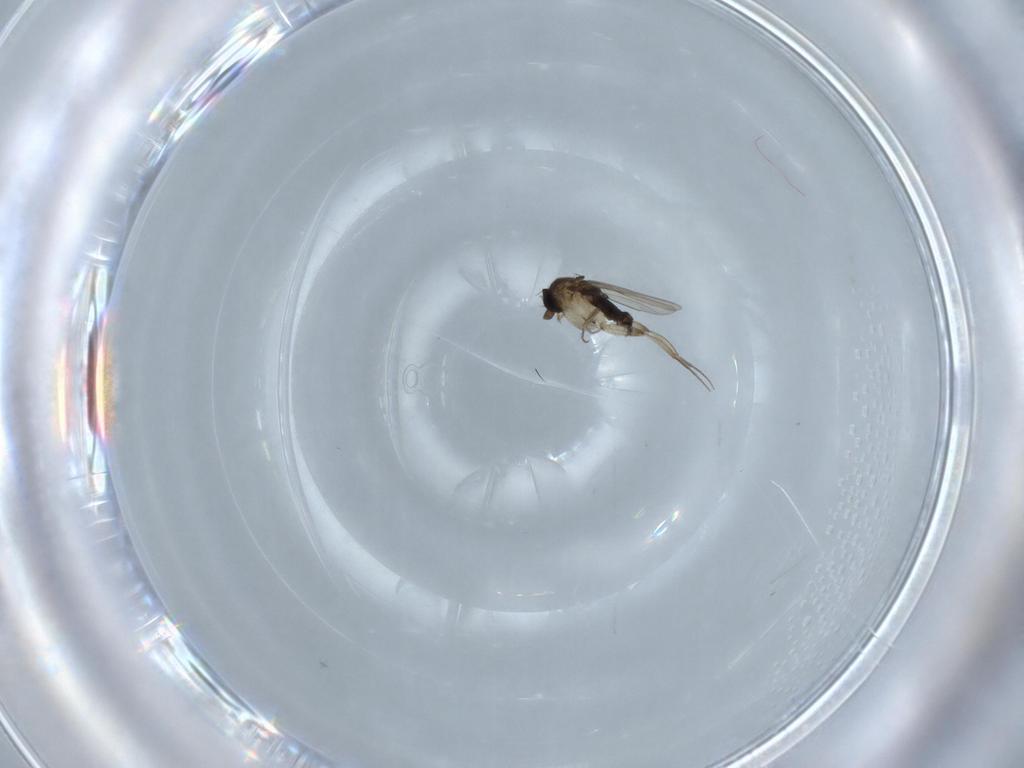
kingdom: Animalia
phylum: Arthropoda
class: Insecta
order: Diptera
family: Phoridae
